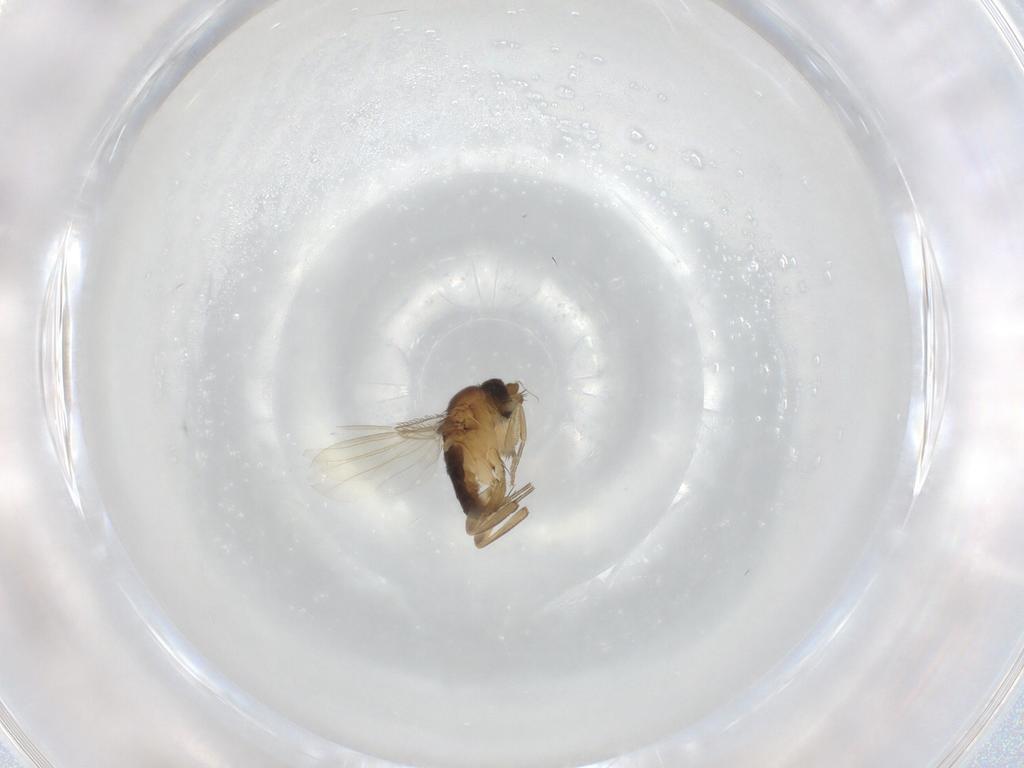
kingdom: Animalia
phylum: Arthropoda
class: Insecta
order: Diptera
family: Phoridae
